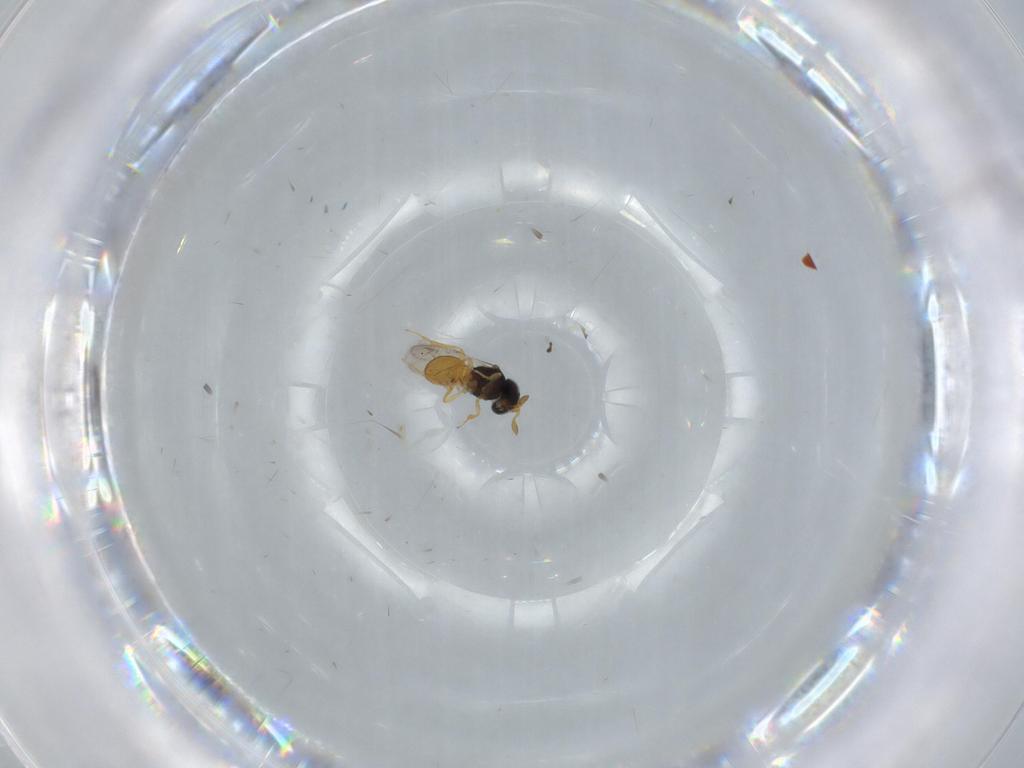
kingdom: Animalia
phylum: Arthropoda
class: Insecta
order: Hymenoptera
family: Scelionidae
